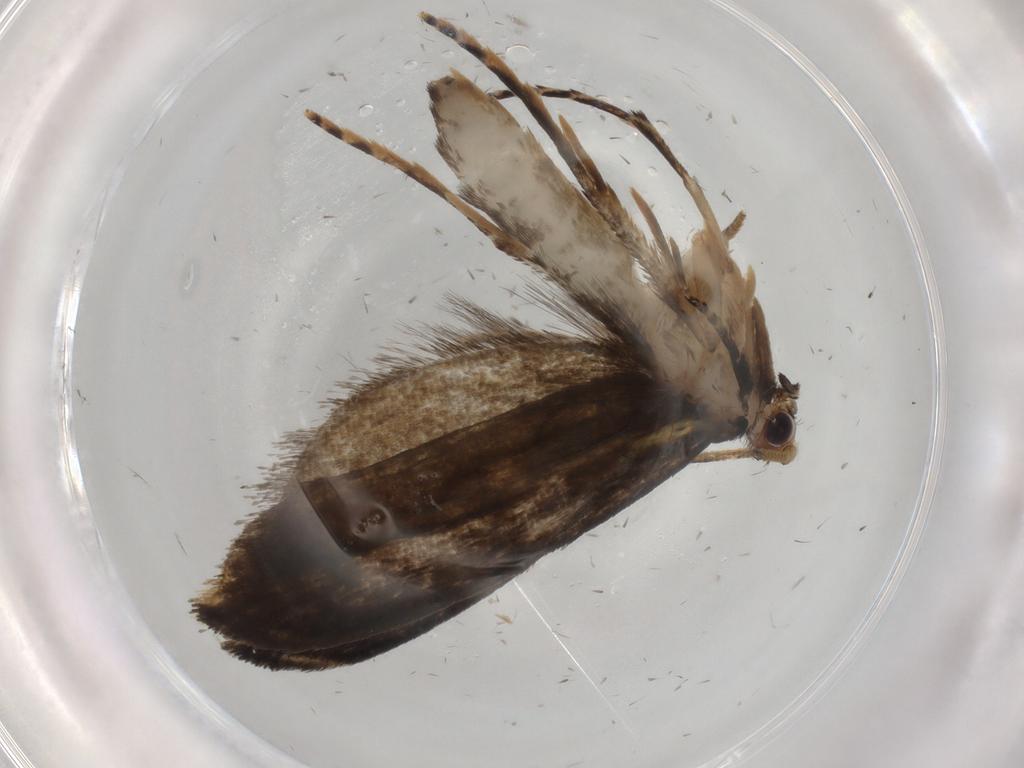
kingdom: Animalia
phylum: Arthropoda
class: Insecta
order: Lepidoptera
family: Tineidae
